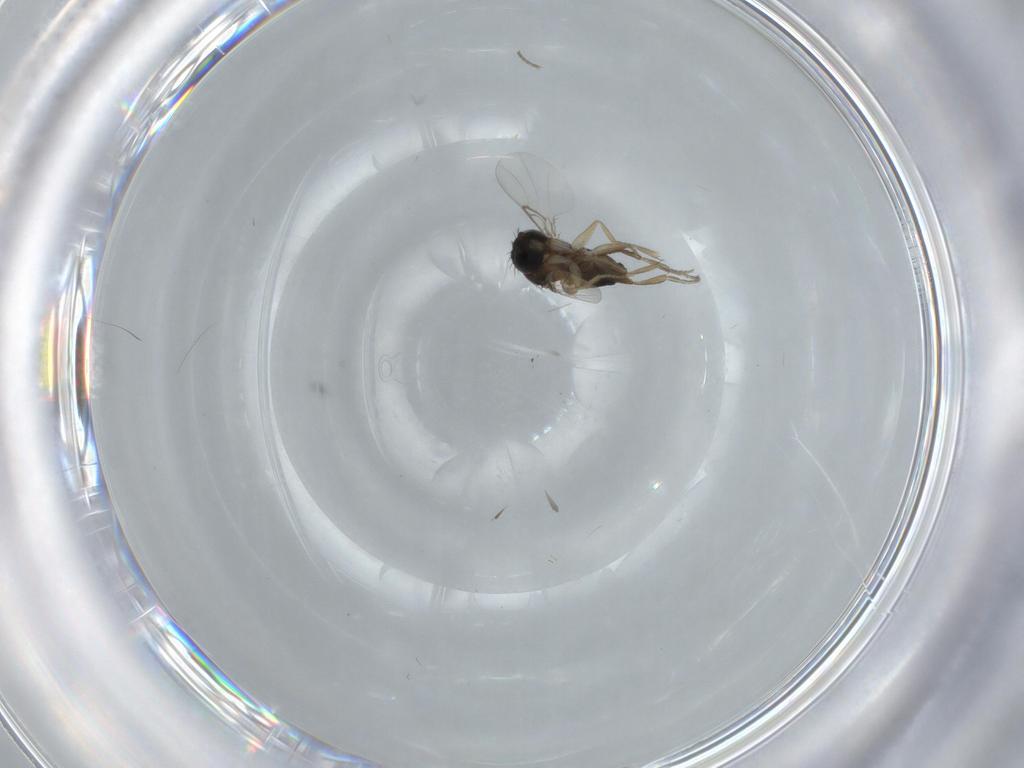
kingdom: Animalia
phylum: Arthropoda
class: Insecta
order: Diptera
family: Phoridae
